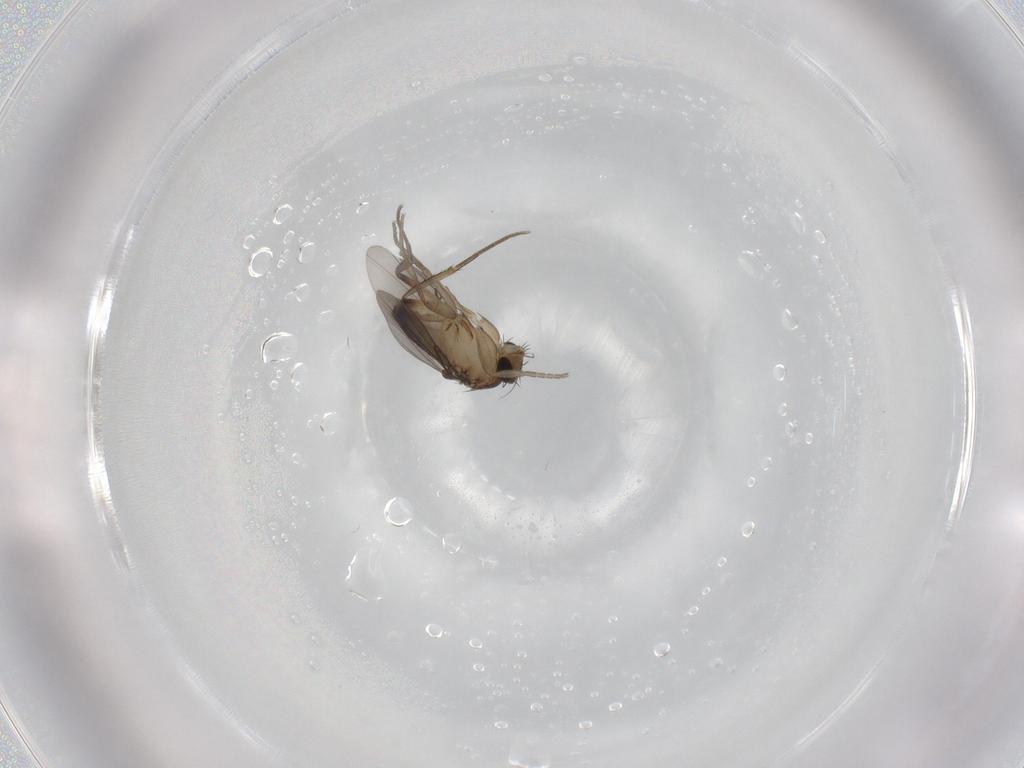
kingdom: Animalia
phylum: Arthropoda
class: Insecta
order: Diptera
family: Phoridae
